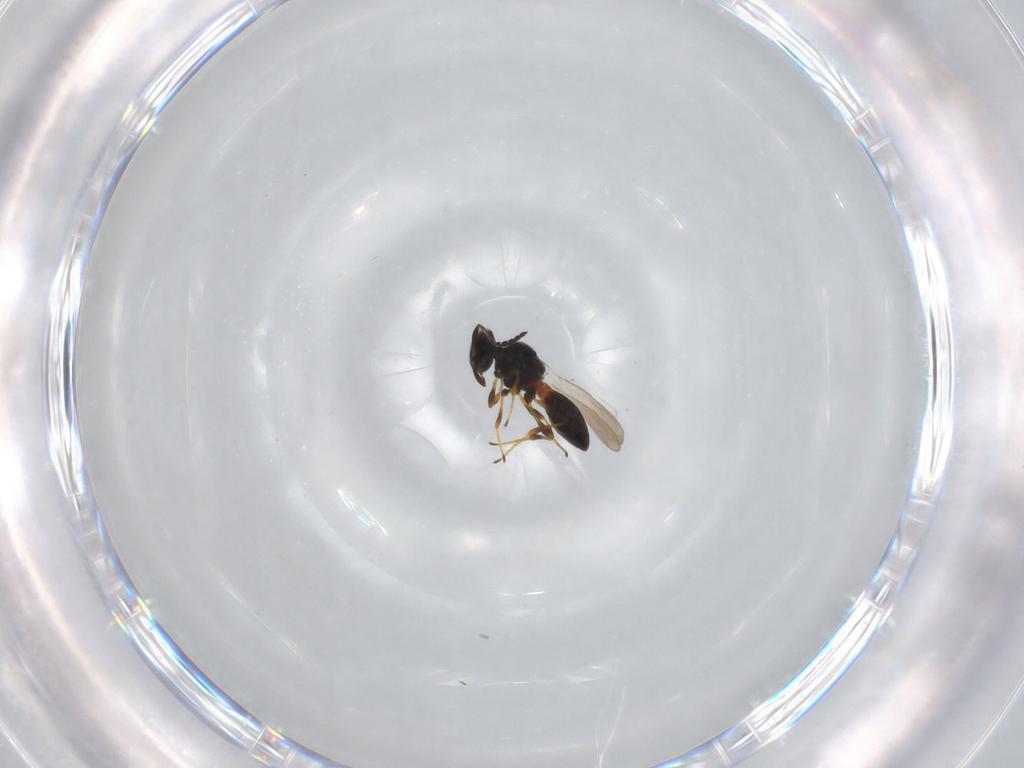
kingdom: Animalia
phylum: Arthropoda
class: Insecta
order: Hymenoptera
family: Platygastridae
